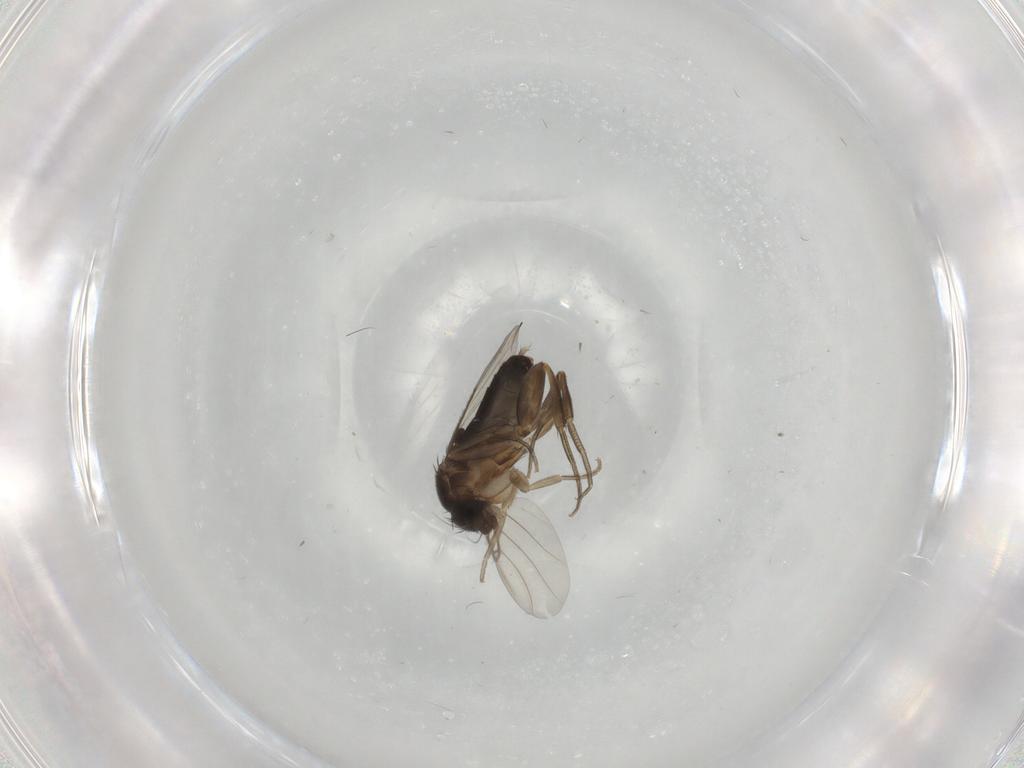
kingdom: Animalia
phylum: Arthropoda
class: Insecta
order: Diptera
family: Phoridae
